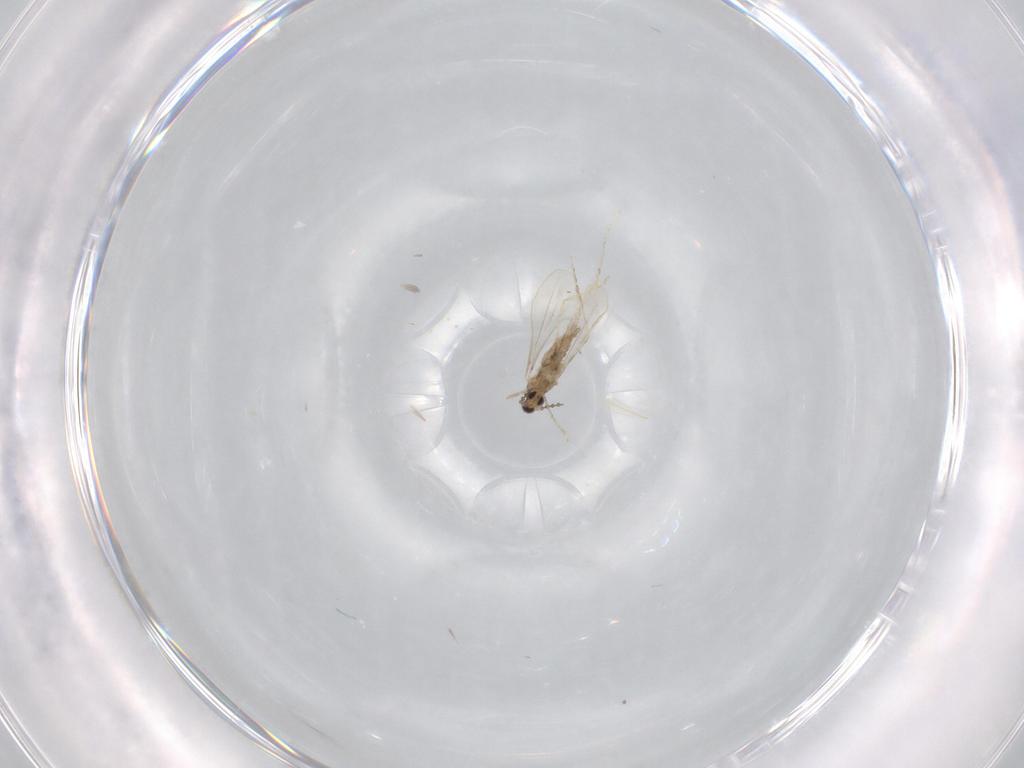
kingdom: Animalia
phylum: Arthropoda
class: Insecta
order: Diptera
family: Cecidomyiidae
